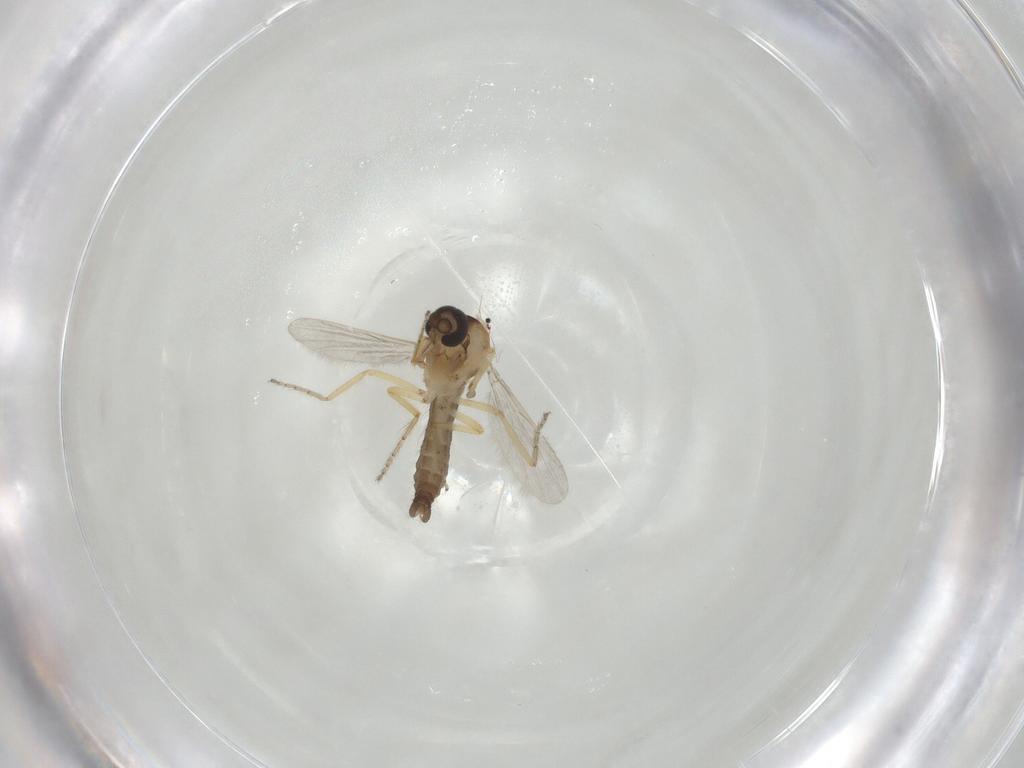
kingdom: Animalia
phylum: Arthropoda
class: Insecta
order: Diptera
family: Ceratopogonidae
